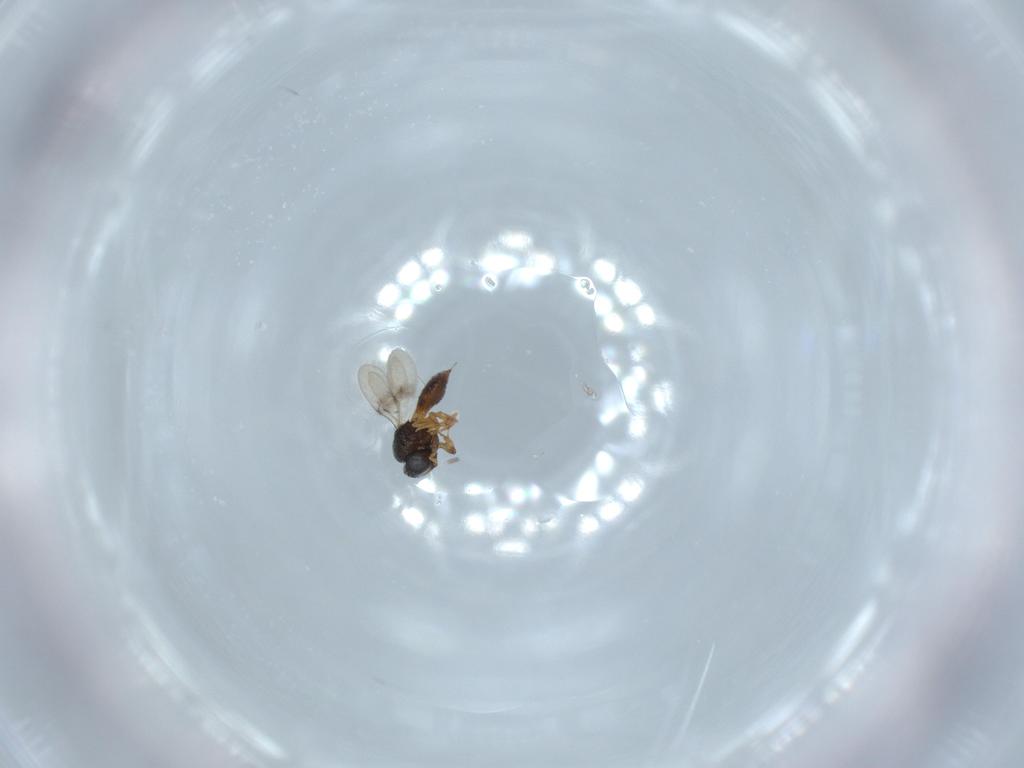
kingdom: Animalia
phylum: Arthropoda
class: Insecta
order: Hymenoptera
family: Scelionidae
